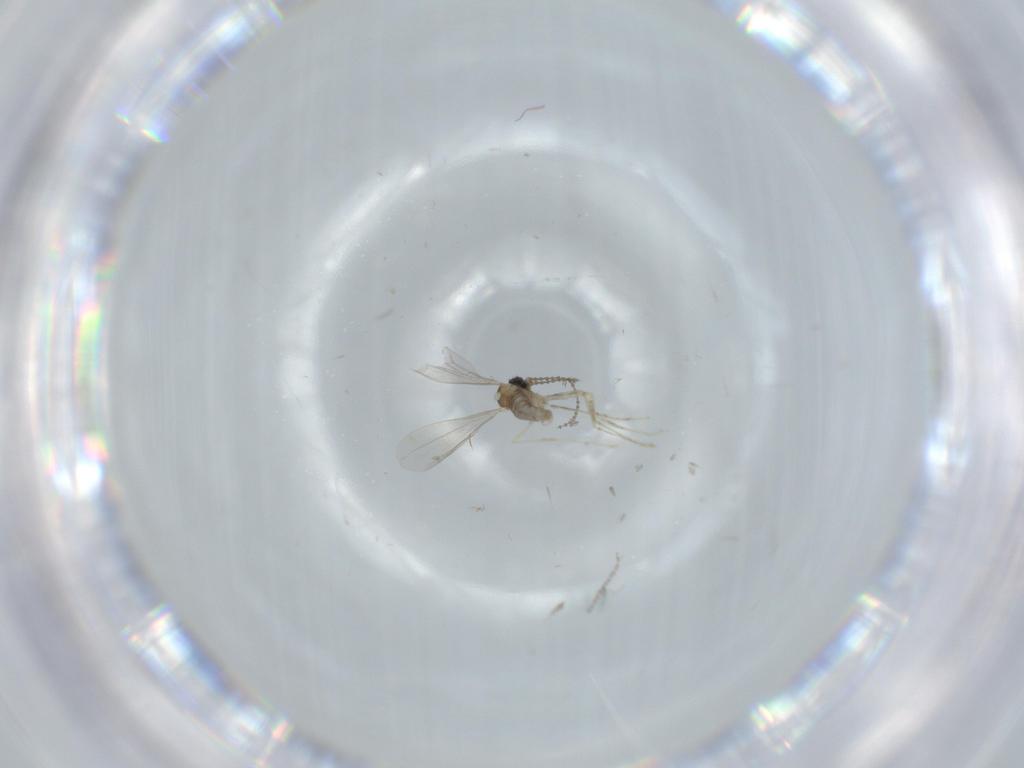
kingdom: Animalia
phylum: Arthropoda
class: Insecta
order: Diptera
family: Cecidomyiidae
